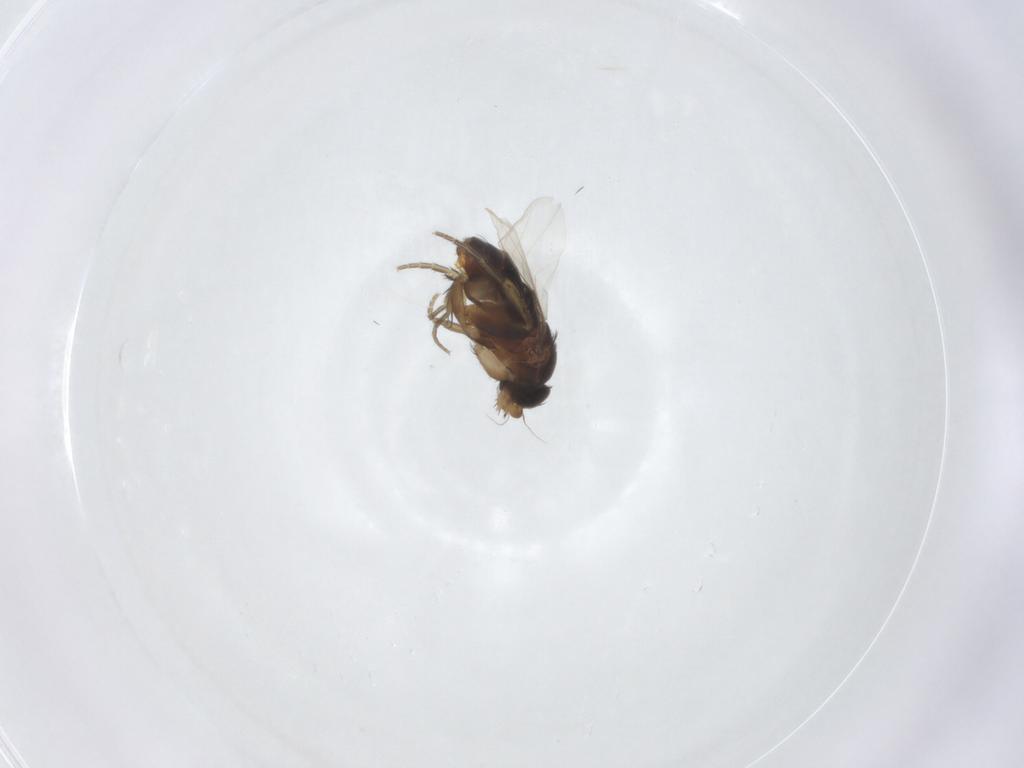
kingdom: Animalia
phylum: Arthropoda
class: Insecta
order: Diptera
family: Phoridae
